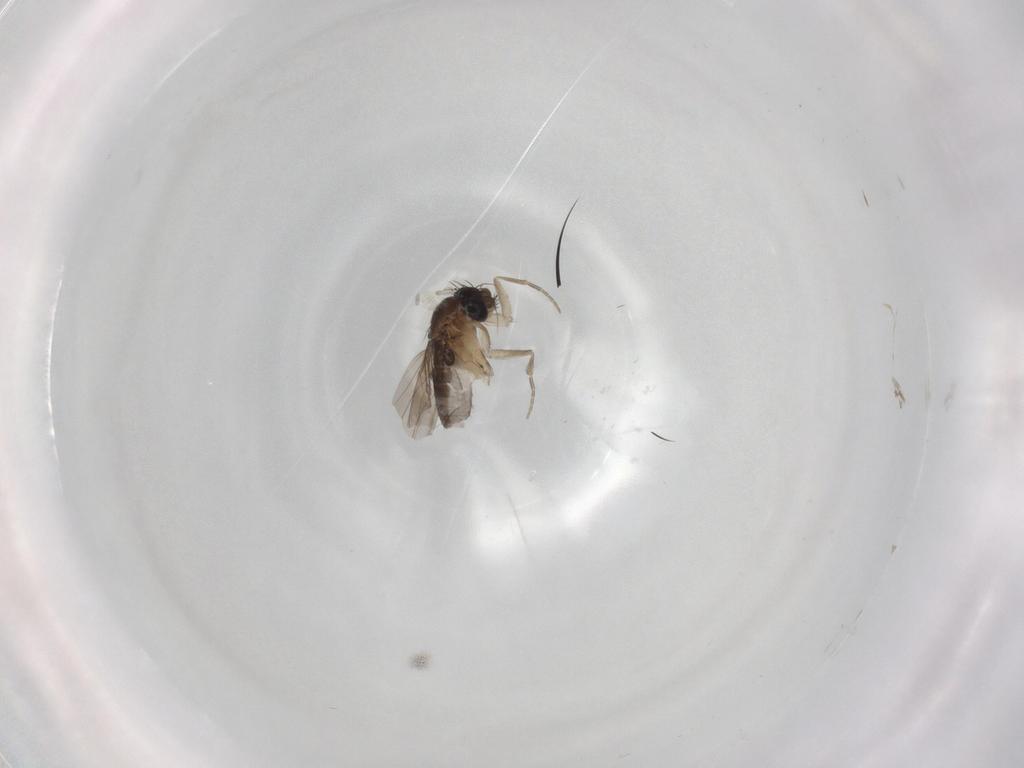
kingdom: Animalia
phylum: Arthropoda
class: Insecta
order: Diptera
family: Phoridae
